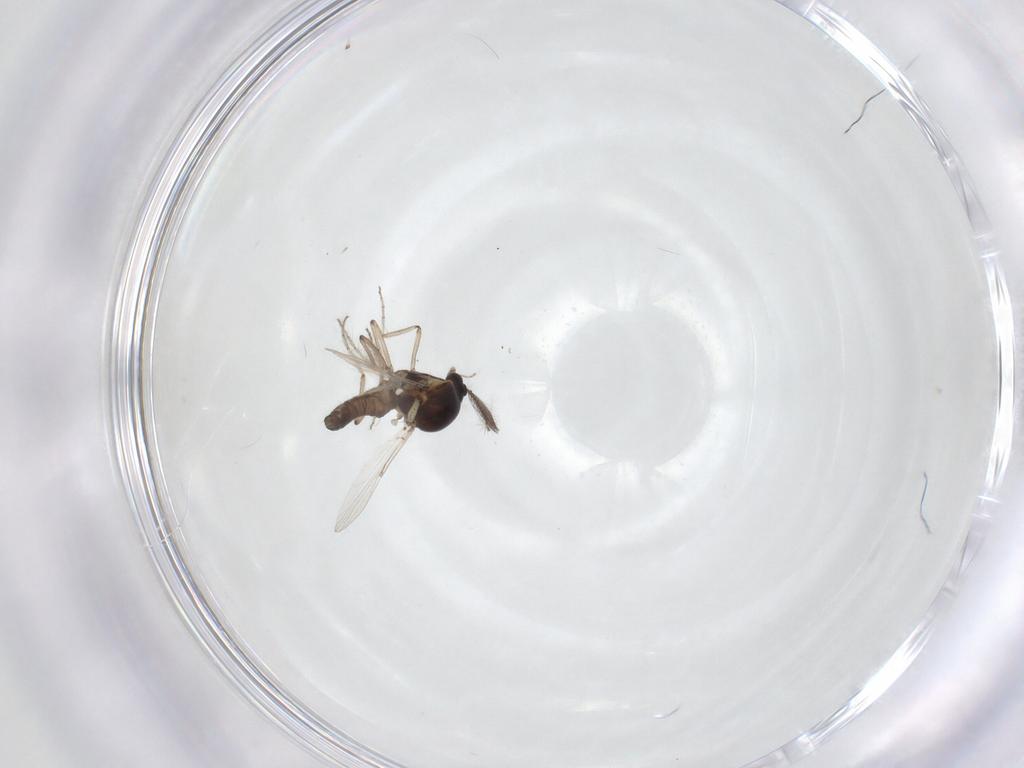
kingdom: Animalia
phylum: Arthropoda
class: Insecta
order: Diptera
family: Ceratopogonidae
